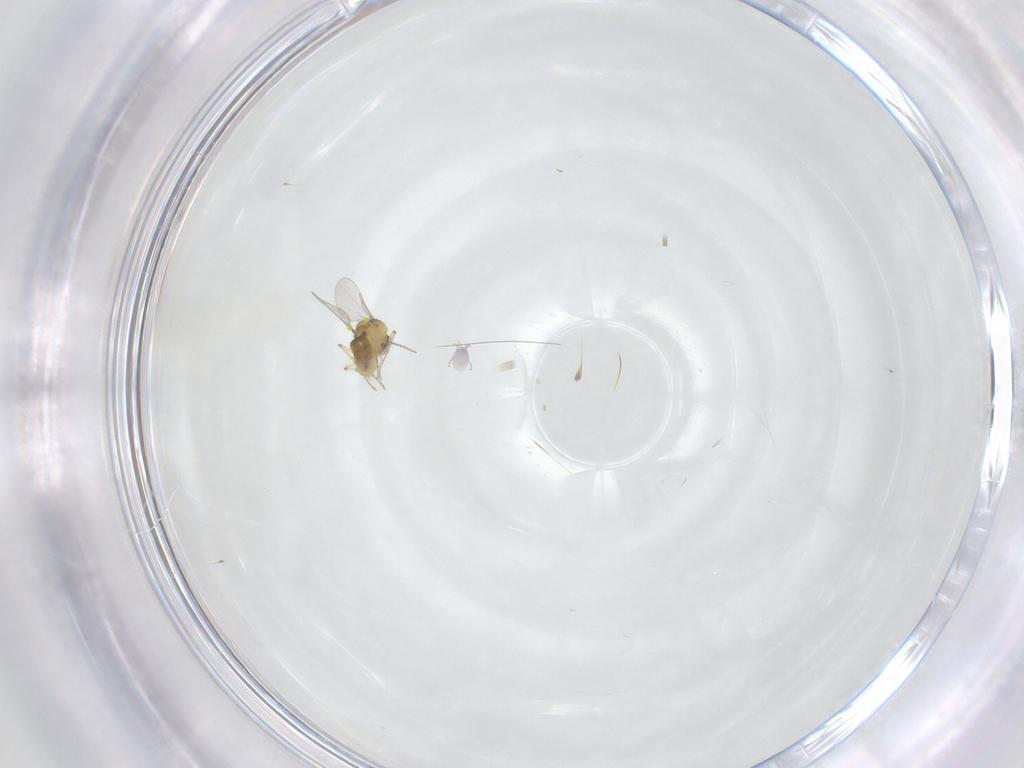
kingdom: Animalia
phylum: Arthropoda
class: Insecta
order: Diptera
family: Ceratopogonidae
